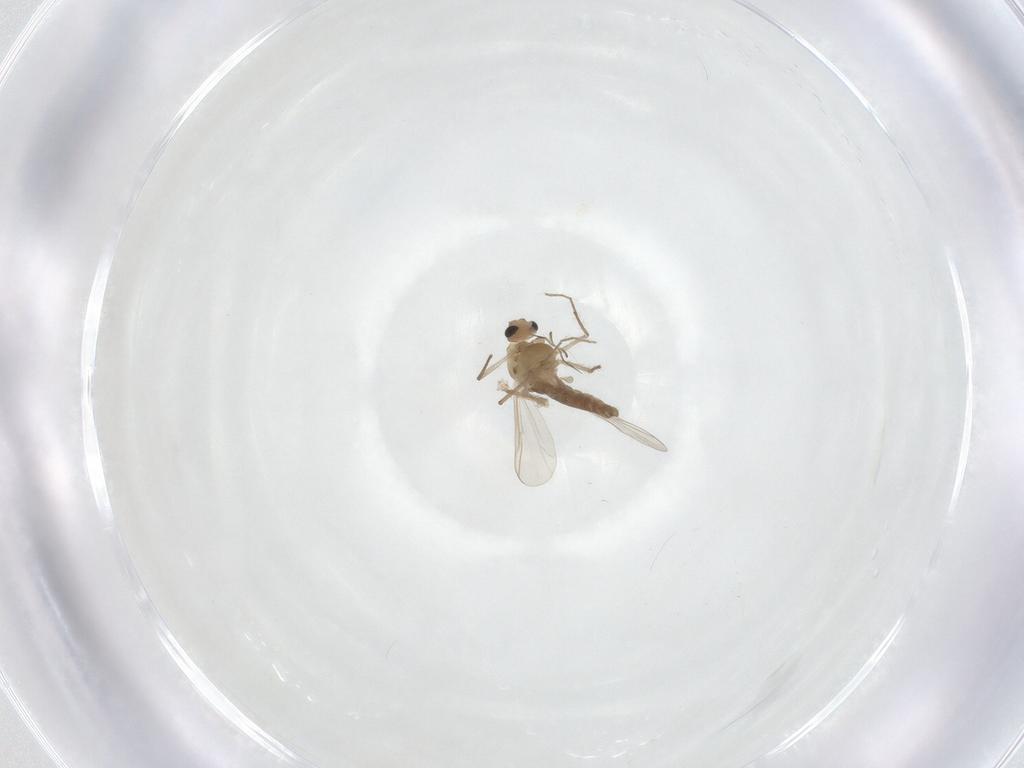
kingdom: Animalia
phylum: Arthropoda
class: Insecta
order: Diptera
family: Chironomidae
